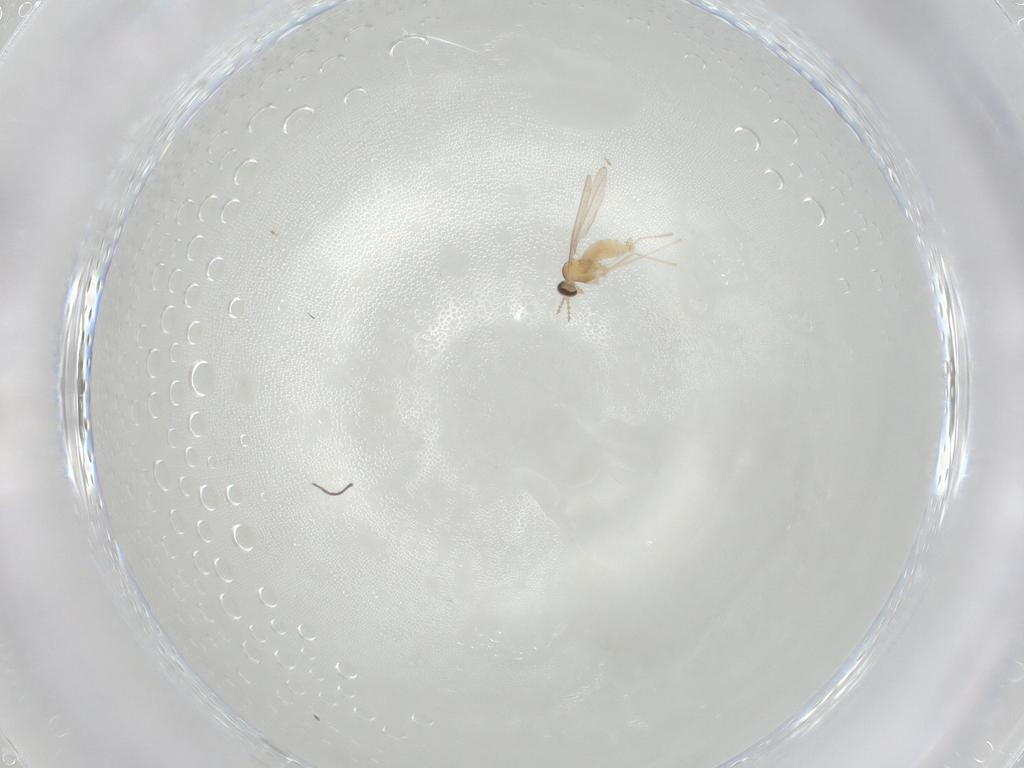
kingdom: Animalia
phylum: Arthropoda
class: Insecta
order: Diptera
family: Cecidomyiidae
